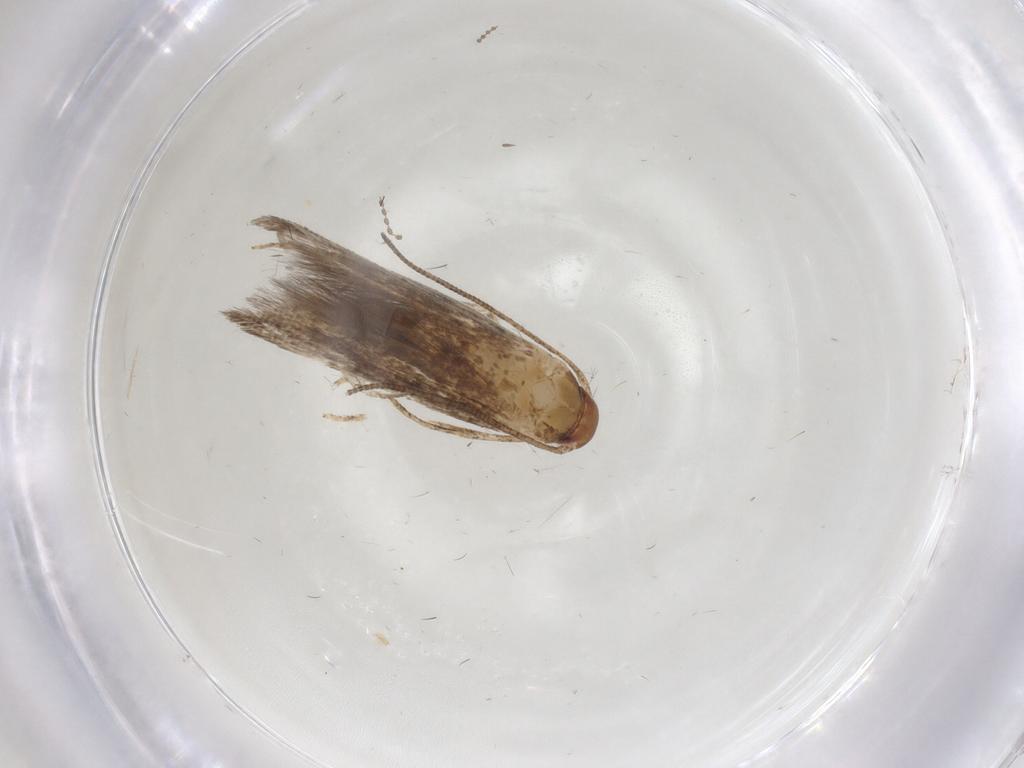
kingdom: Animalia
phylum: Arthropoda
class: Insecta
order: Lepidoptera
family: Momphidae
